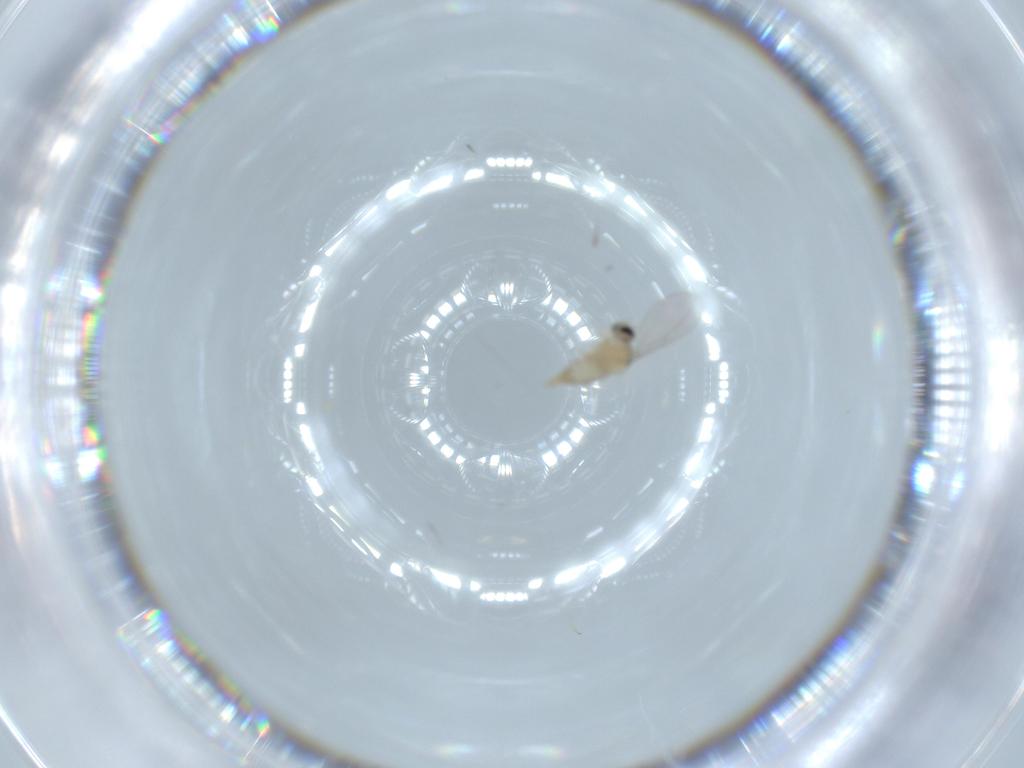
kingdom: Animalia
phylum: Arthropoda
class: Insecta
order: Diptera
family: Cecidomyiidae
